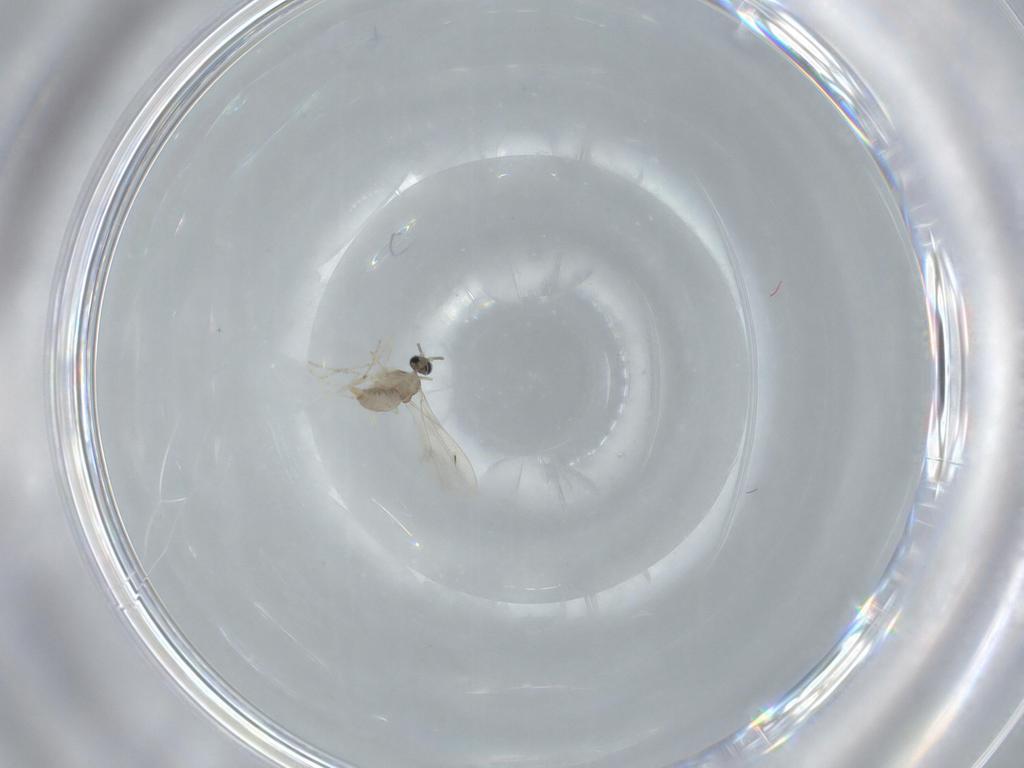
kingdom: Animalia
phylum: Arthropoda
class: Insecta
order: Diptera
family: Cecidomyiidae
